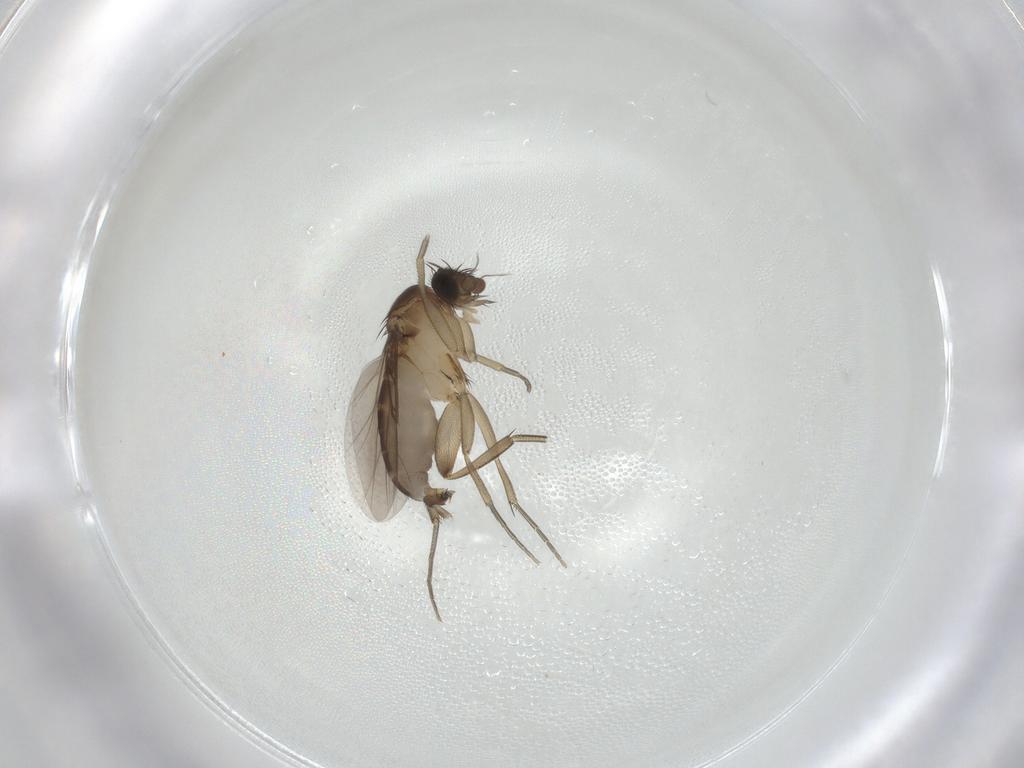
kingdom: Animalia
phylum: Arthropoda
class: Insecta
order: Diptera
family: Phoridae
